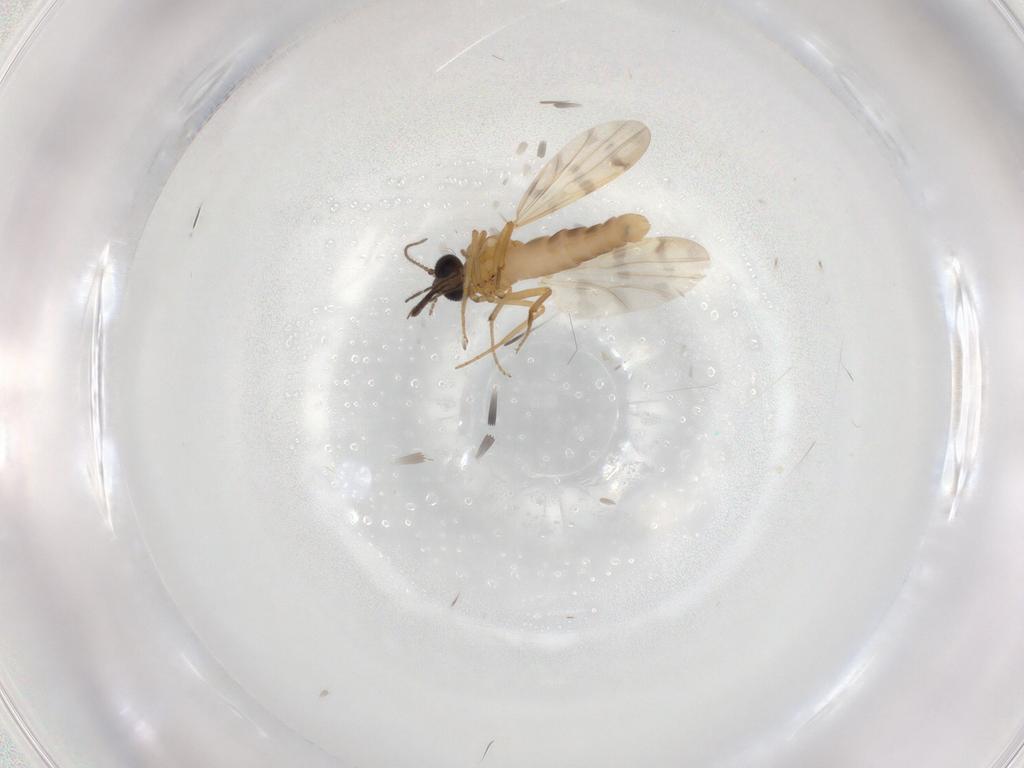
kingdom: Animalia
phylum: Arthropoda
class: Insecta
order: Diptera
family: Ceratopogonidae
